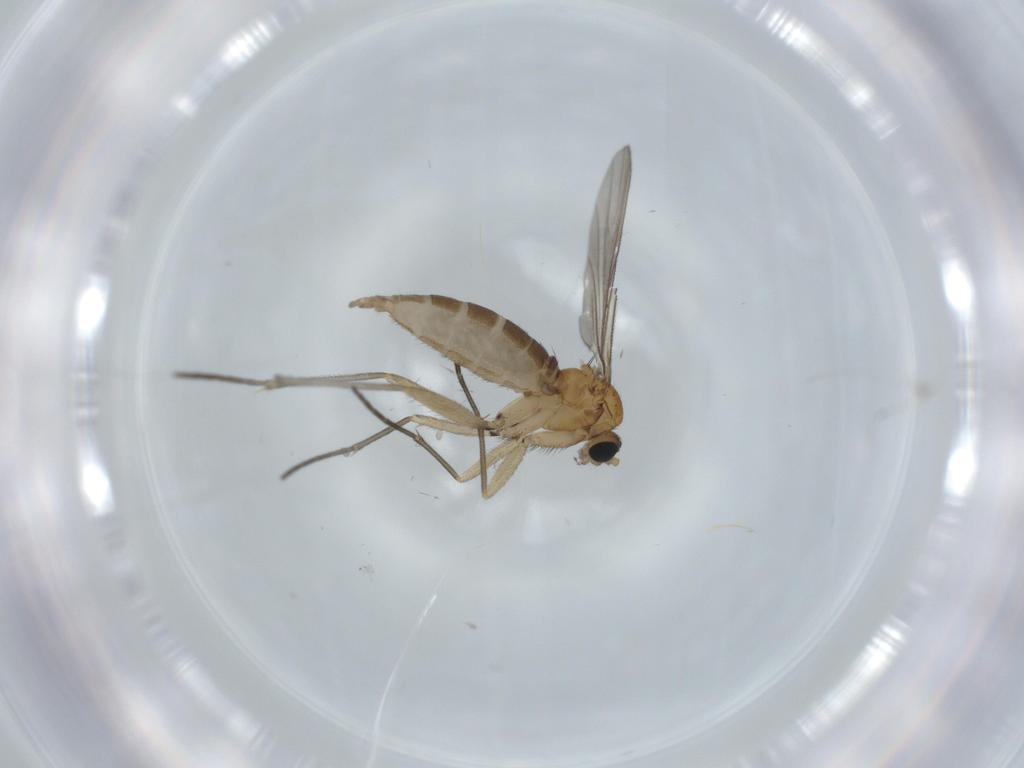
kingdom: Animalia
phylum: Arthropoda
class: Insecta
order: Diptera
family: Sciaridae
